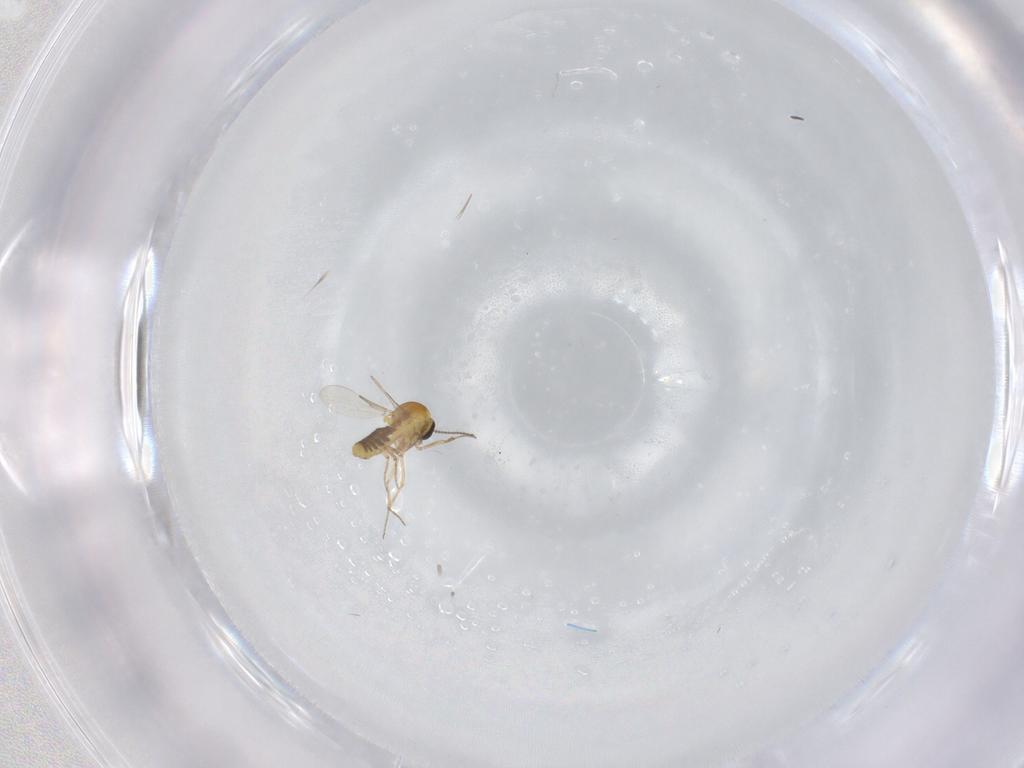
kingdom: Animalia
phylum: Arthropoda
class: Insecta
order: Diptera
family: Ceratopogonidae
